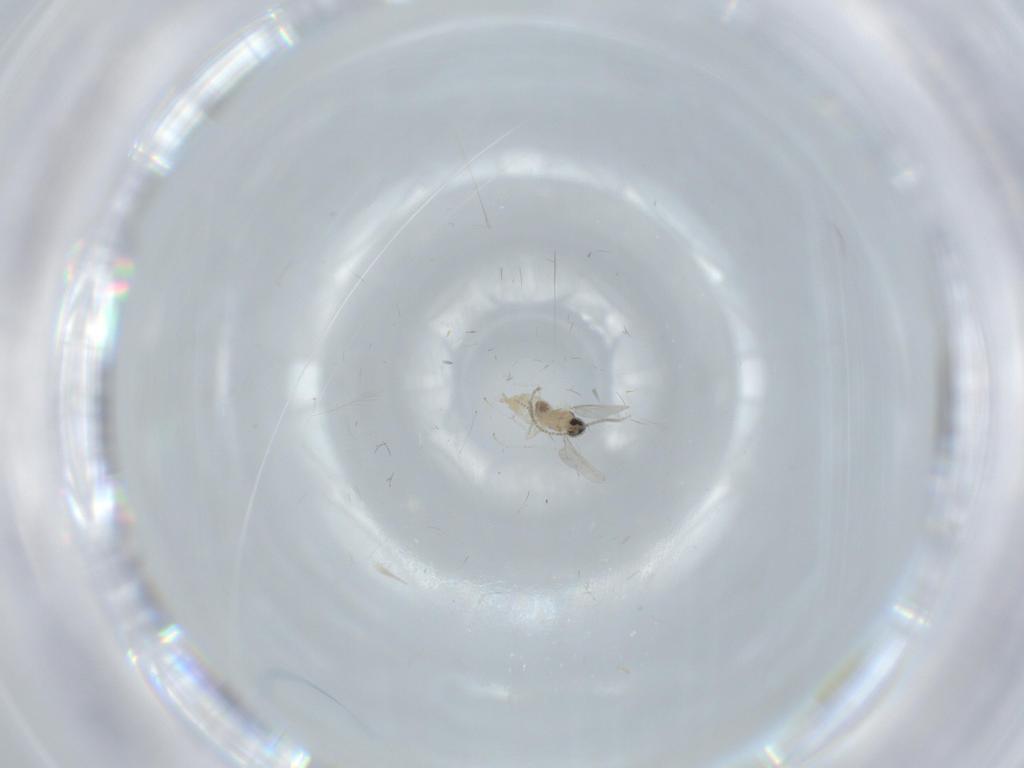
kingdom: Animalia
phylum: Arthropoda
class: Insecta
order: Diptera
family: Cecidomyiidae
